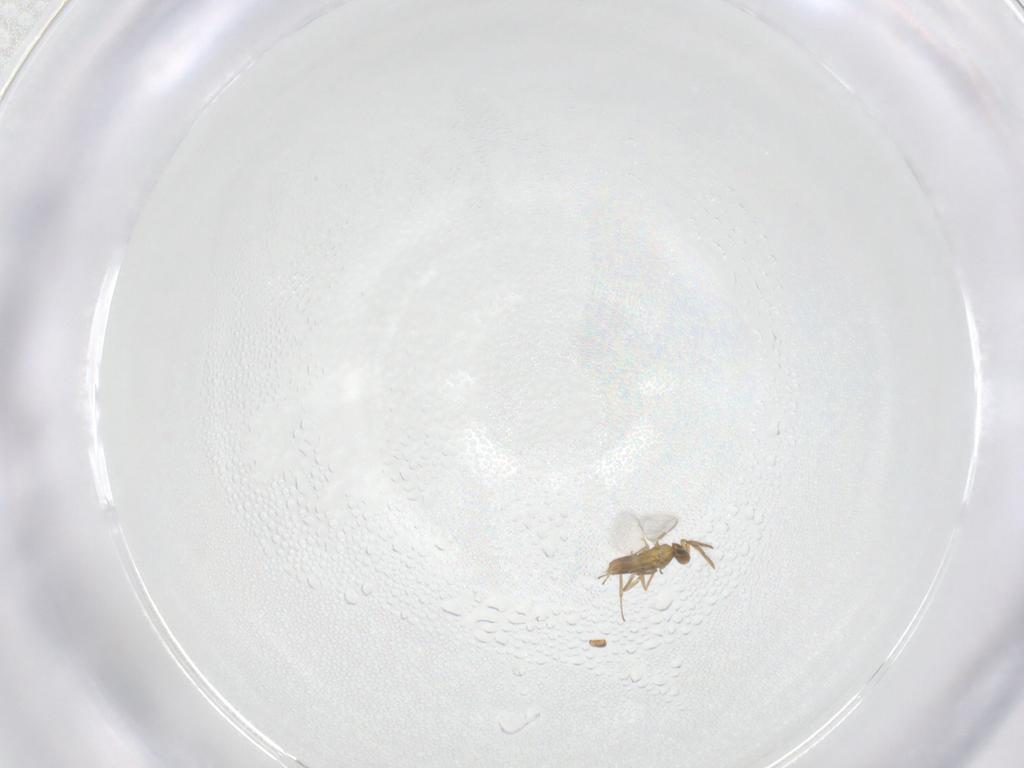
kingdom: Animalia
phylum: Arthropoda
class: Insecta
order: Hymenoptera
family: Aphelinidae
